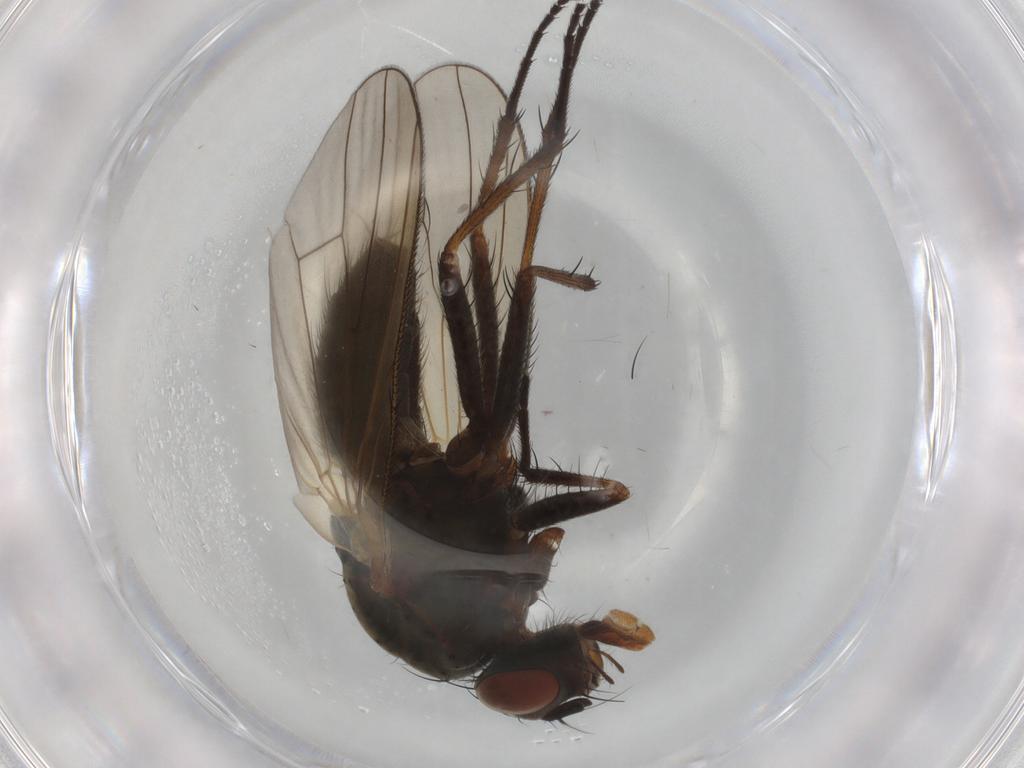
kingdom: Animalia
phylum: Arthropoda
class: Insecta
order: Diptera
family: Anthomyiidae
